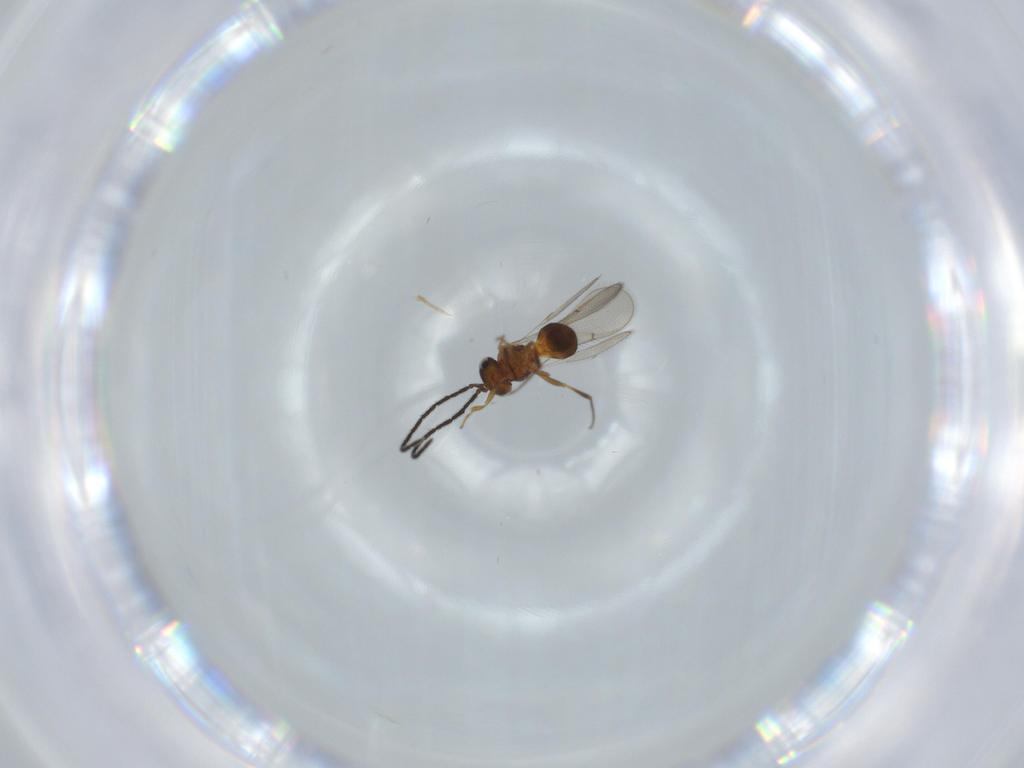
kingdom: Animalia
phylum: Arthropoda
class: Insecta
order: Hymenoptera
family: Scelionidae
